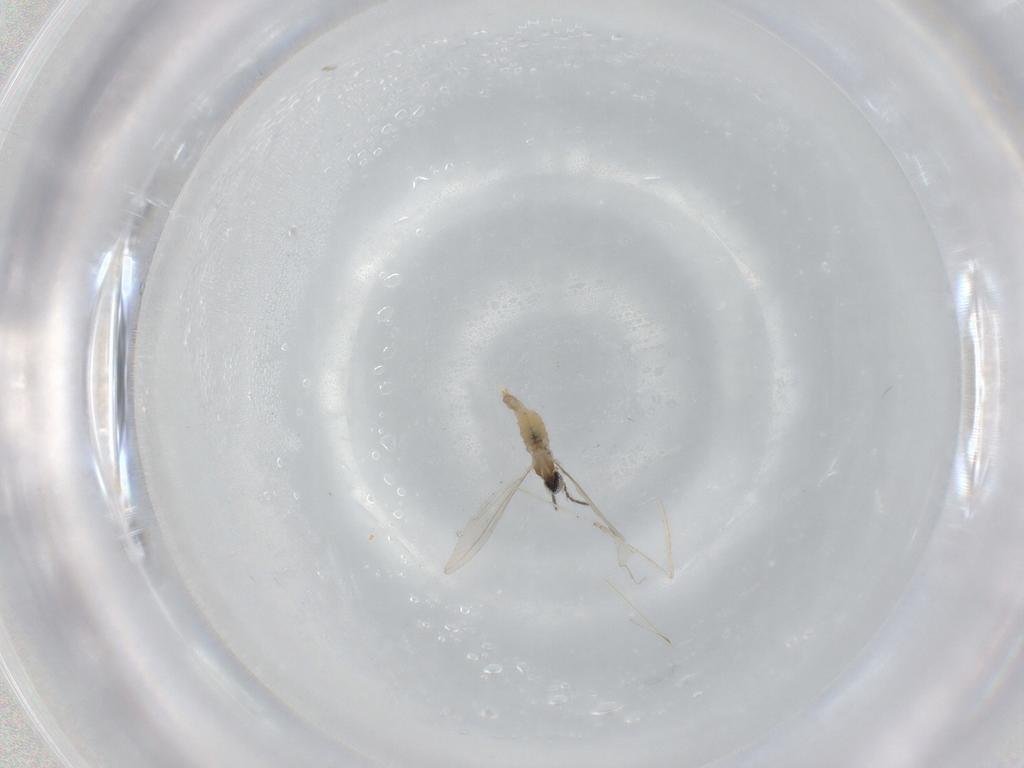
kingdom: Animalia
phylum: Arthropoda
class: Insecta
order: Diptera
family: Cecidomyiidae
